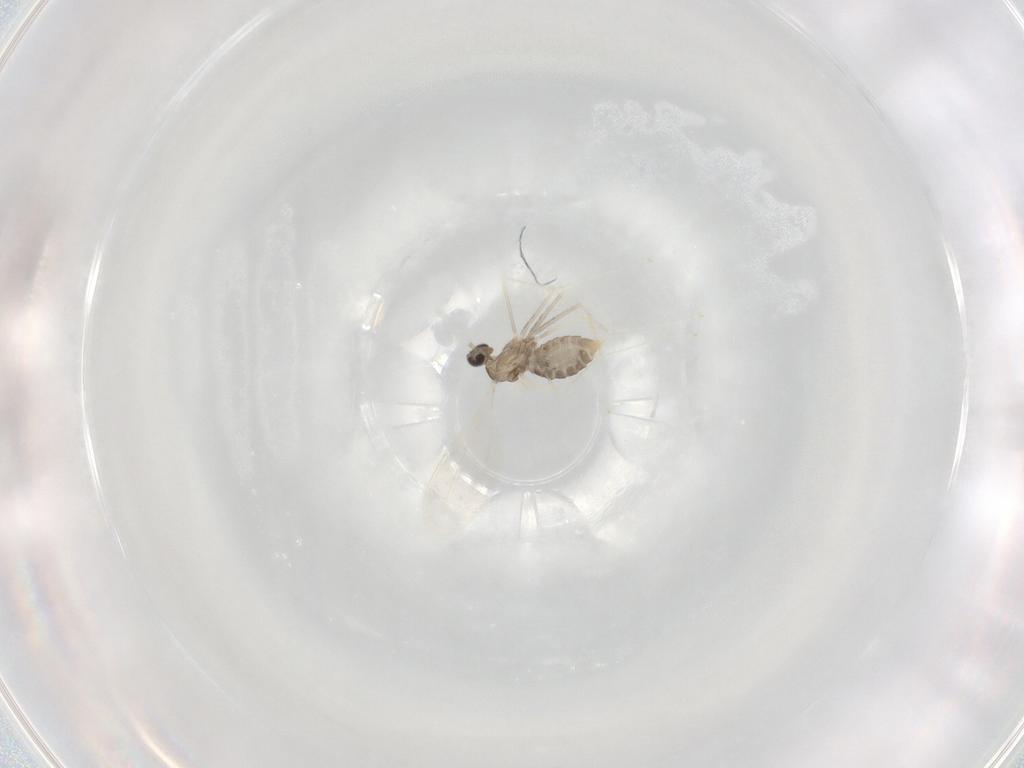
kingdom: Animalia
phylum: Arthropoda
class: Insecta
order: Diptera
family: Cecidomyiidae
